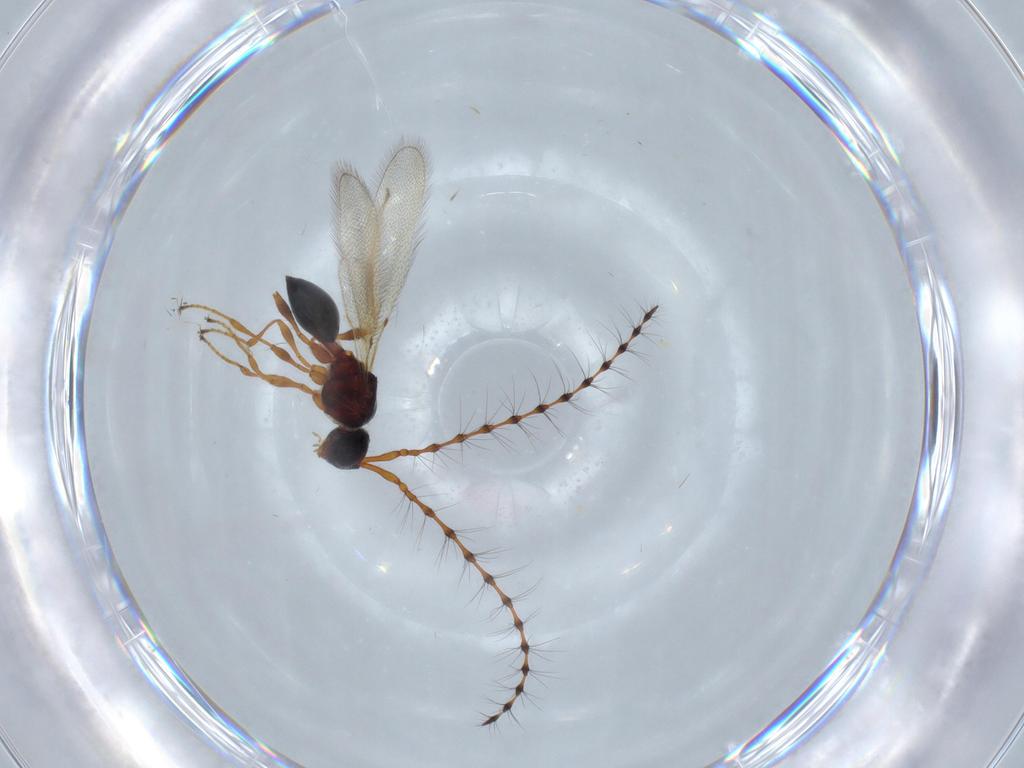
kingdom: Animalia
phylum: Arthropoda
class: Insecta
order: Hymenoptera
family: Diapriidae
